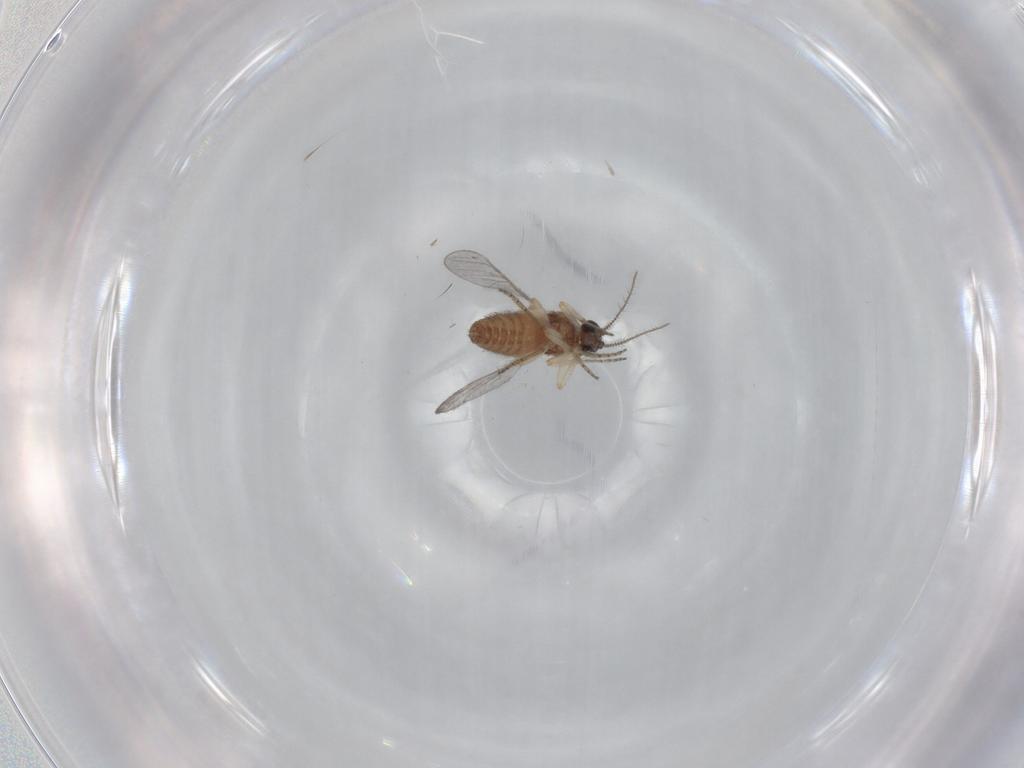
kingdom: Animalia
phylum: Arthropoda
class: Insecta
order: Diptera
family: Ceratopogonidae
